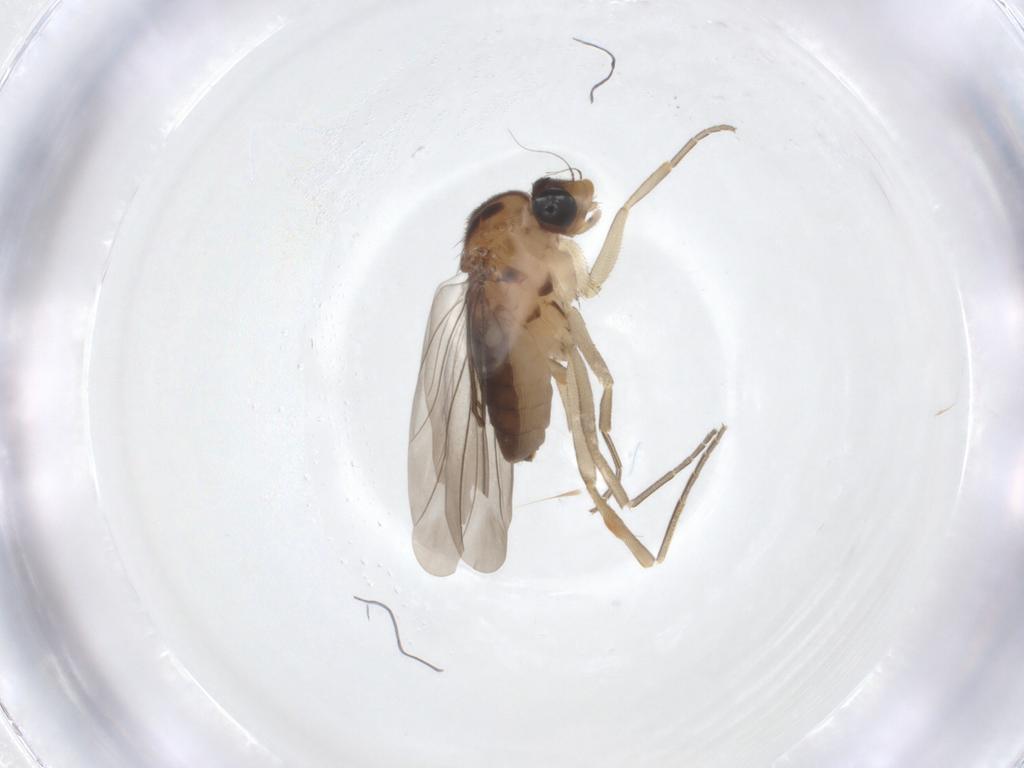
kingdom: Animalia
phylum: Arthropoda
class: Insecta
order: Diptera
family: Phoridae
